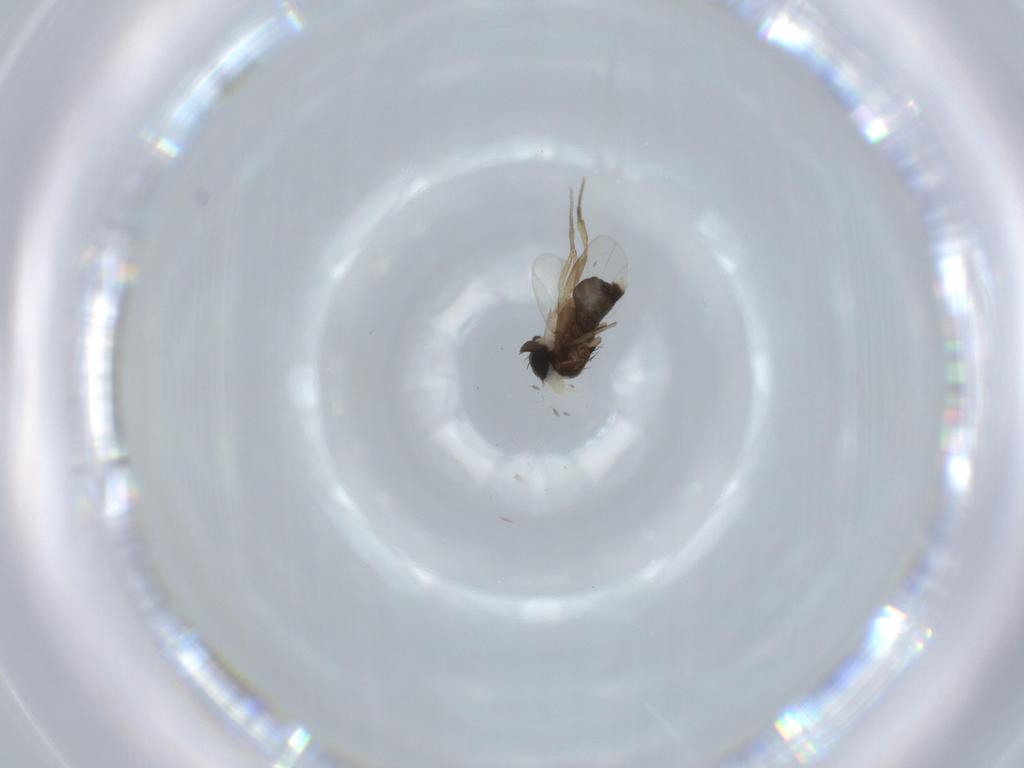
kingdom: Animalia
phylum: Arthropoda
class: Insecta
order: Diptera
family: Phoridae
